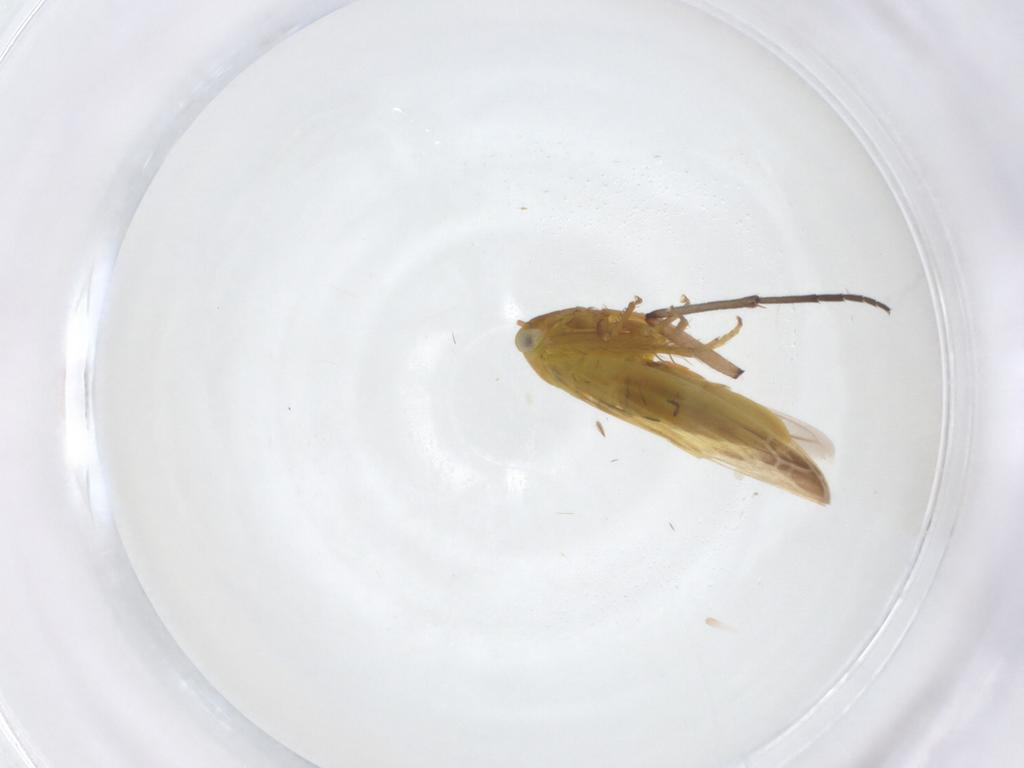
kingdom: Animalia
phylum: Arthropoda
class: Insecta
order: Hemiptera
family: Cicadellidae
